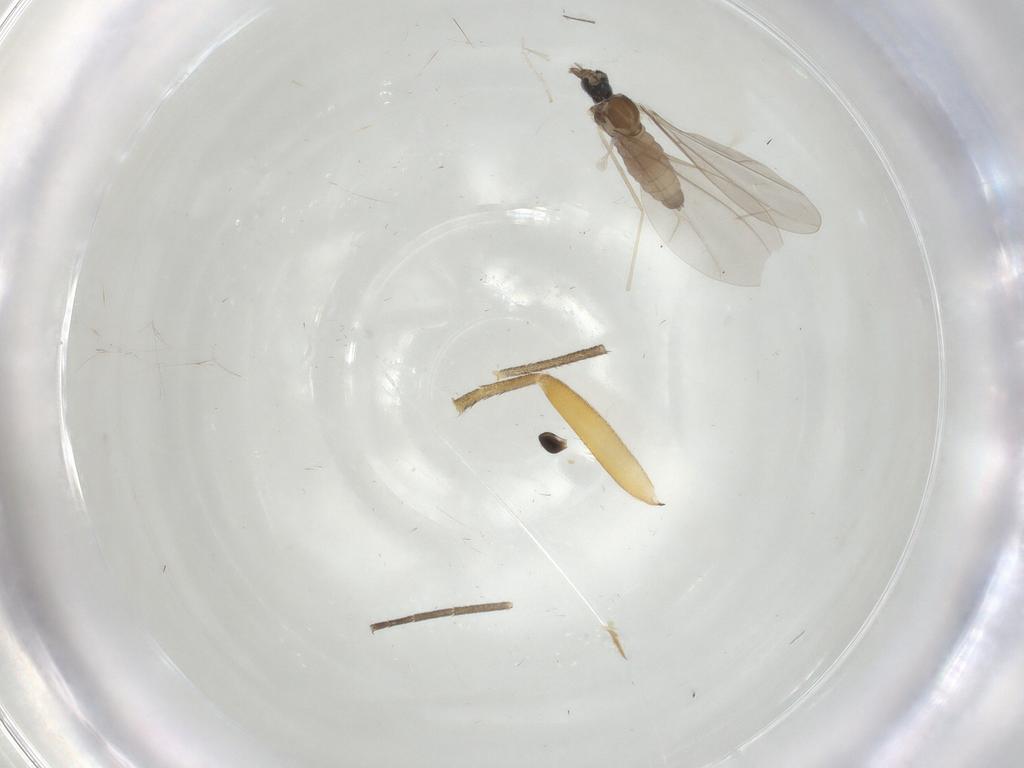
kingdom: Animalia
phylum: Arthropoda
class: Insecta
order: Diptera
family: Cecidomyiidae
